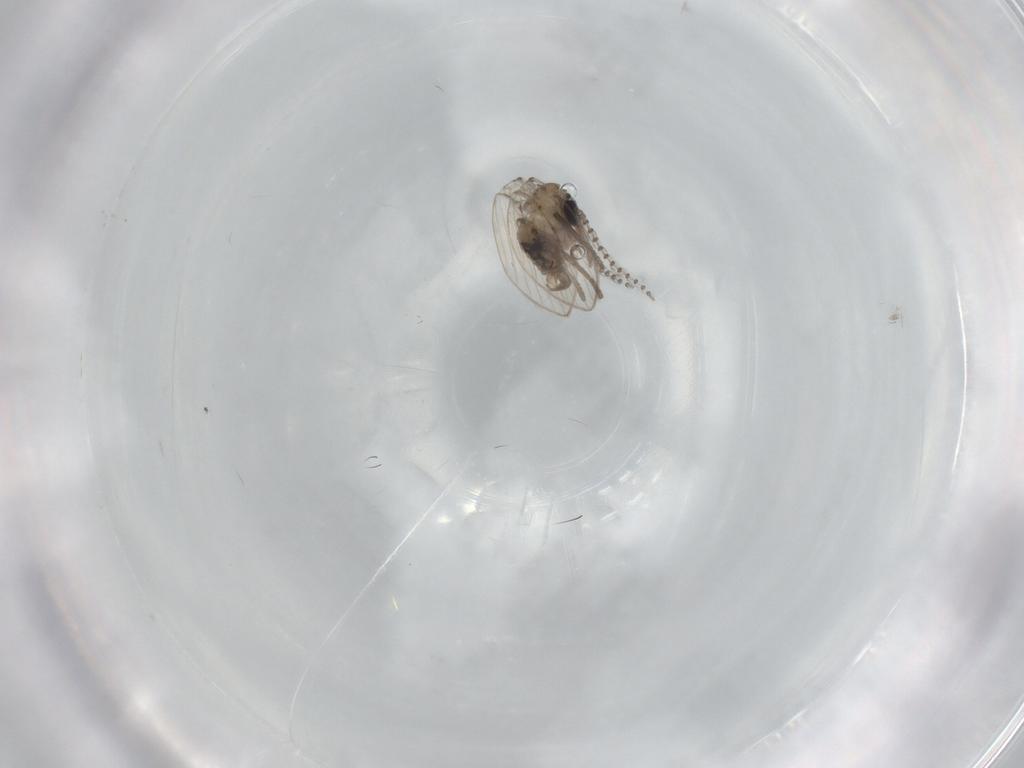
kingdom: Animalia
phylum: Arthropoda
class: Insecta
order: Diptera
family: Psychodidae
